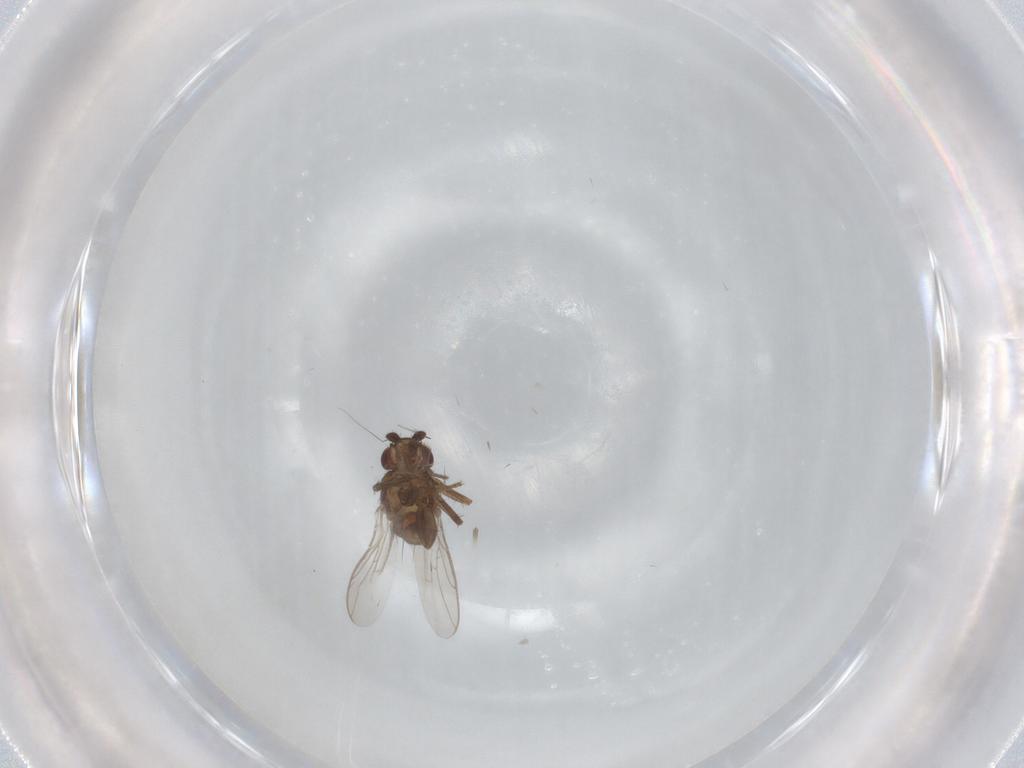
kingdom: Animalia
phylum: Arthropoda
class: Insecta
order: Diptera
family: Sphaeroceridae
